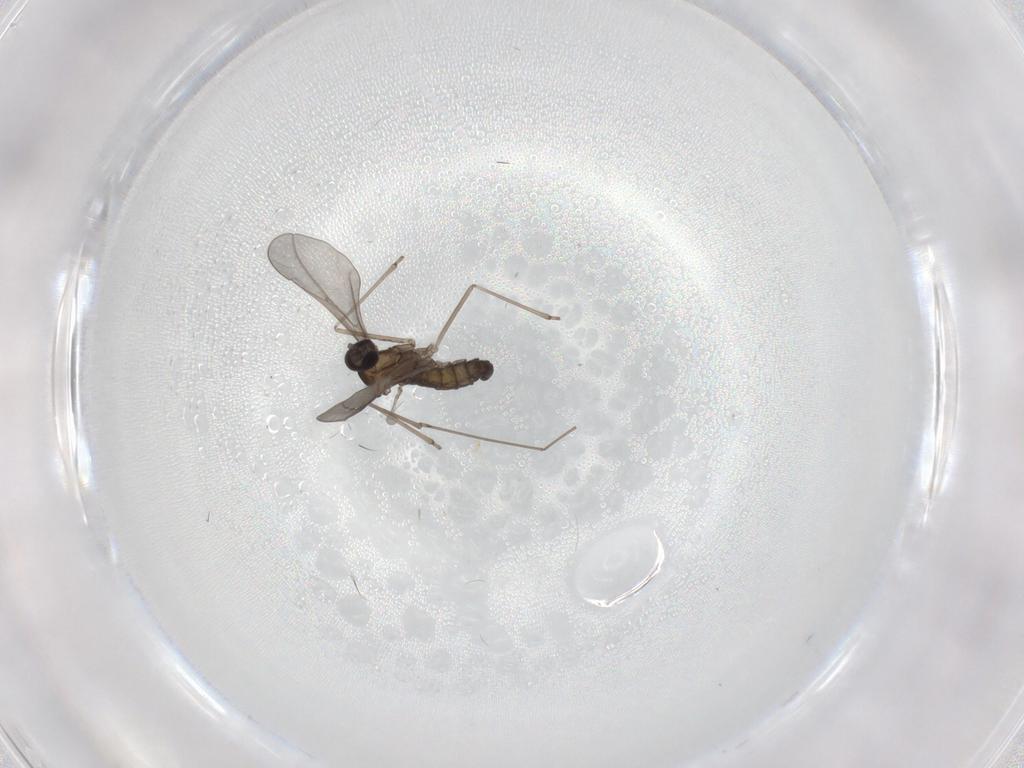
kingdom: Animalia
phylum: Arthropoda
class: Insecta
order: Diptera
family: Cecidomyiidae
